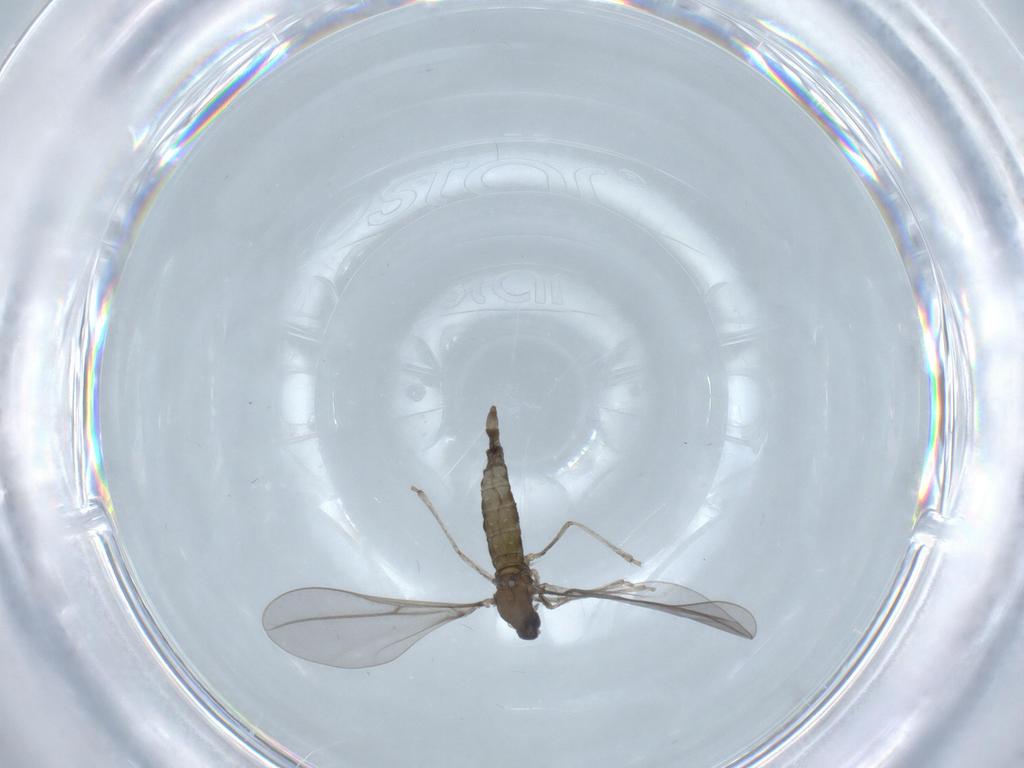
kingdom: Animalia
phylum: Arthropoda
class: Insecta
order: Diptera
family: Cecidomyiidae
